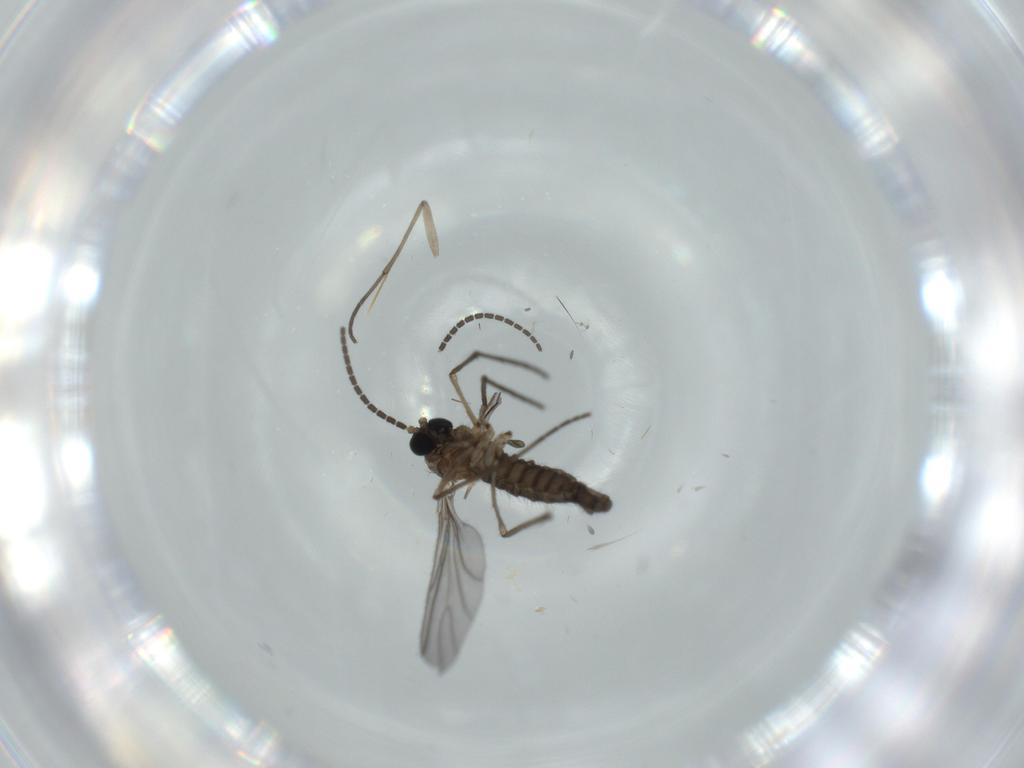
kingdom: Animalia
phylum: Arthropoda
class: Insecta
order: Diptera
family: Sciaridae
